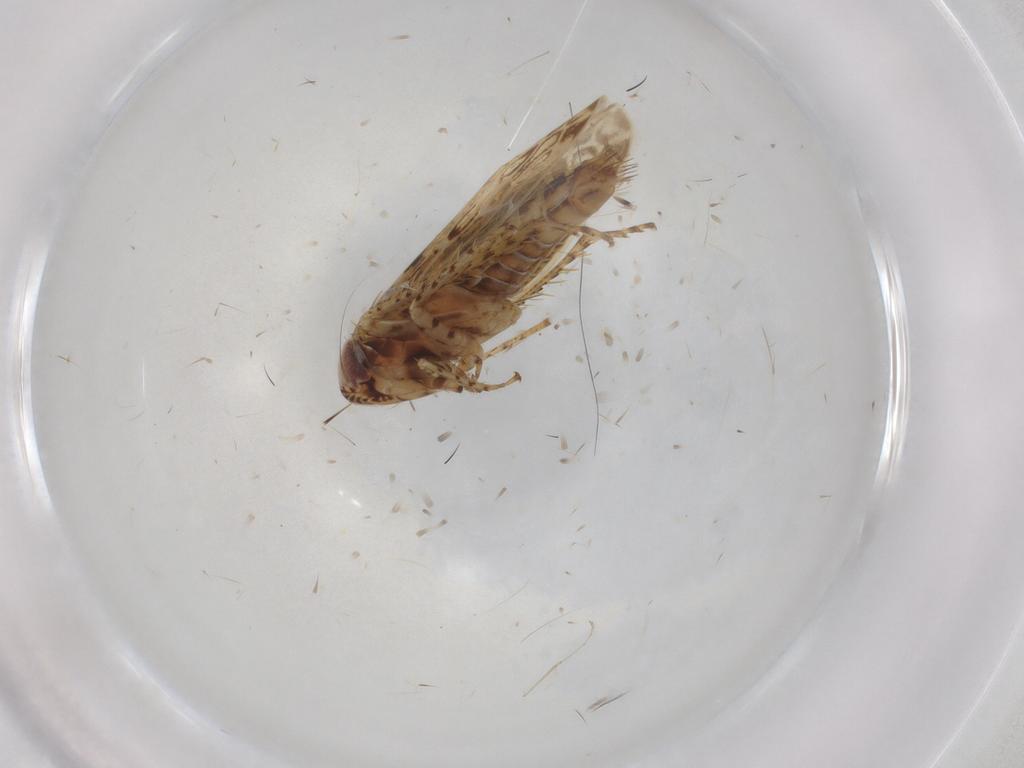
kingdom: Animalia
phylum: Arthropoda
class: Insecta
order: Hemiptera
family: Cicadellidae
